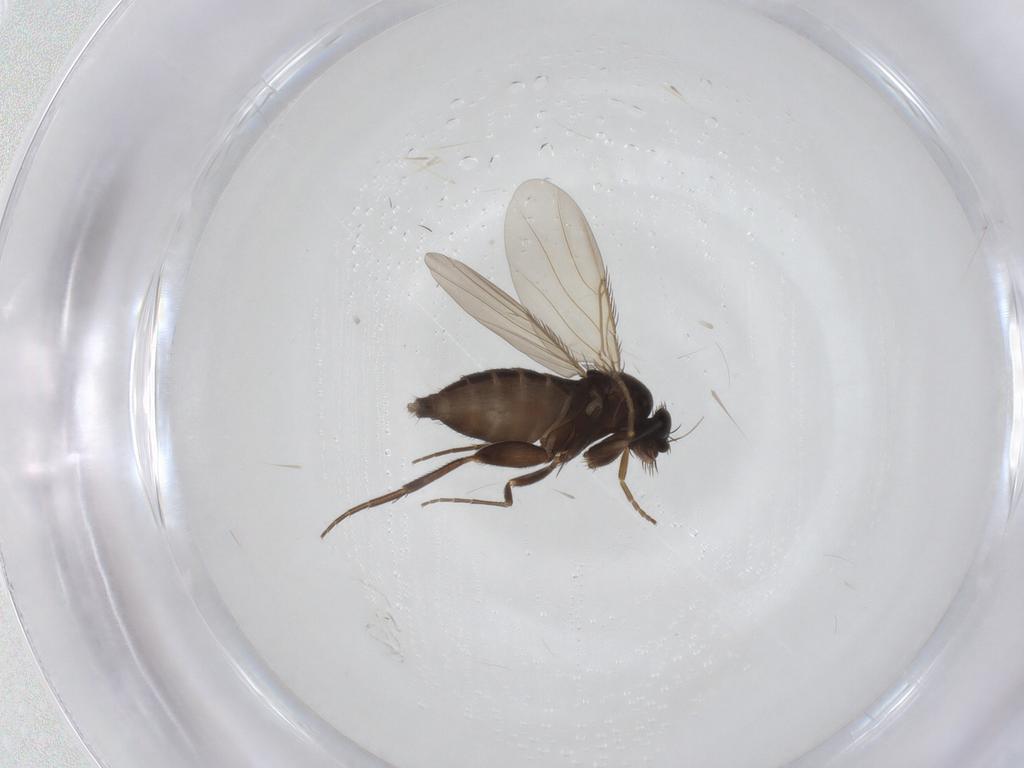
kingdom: Animalia
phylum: Arthropoda
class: Insecta
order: Diptera
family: Phoridae
